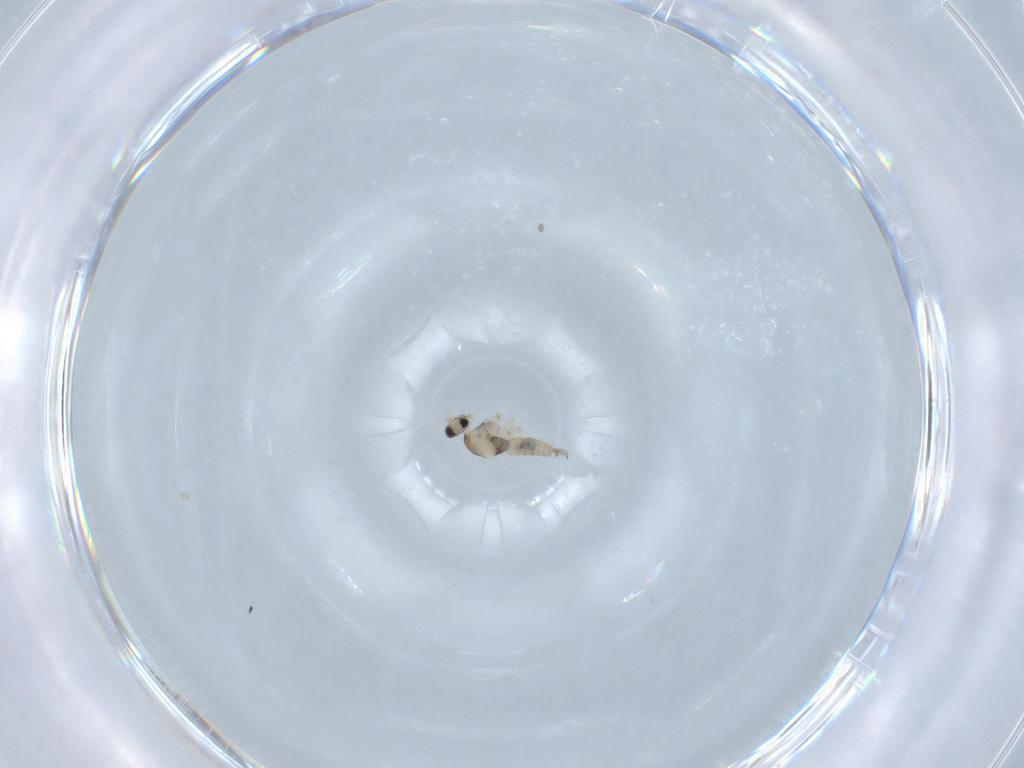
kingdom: Animalia
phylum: Arthropoda
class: Insecta
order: Diptera
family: Cecidomyiidae
